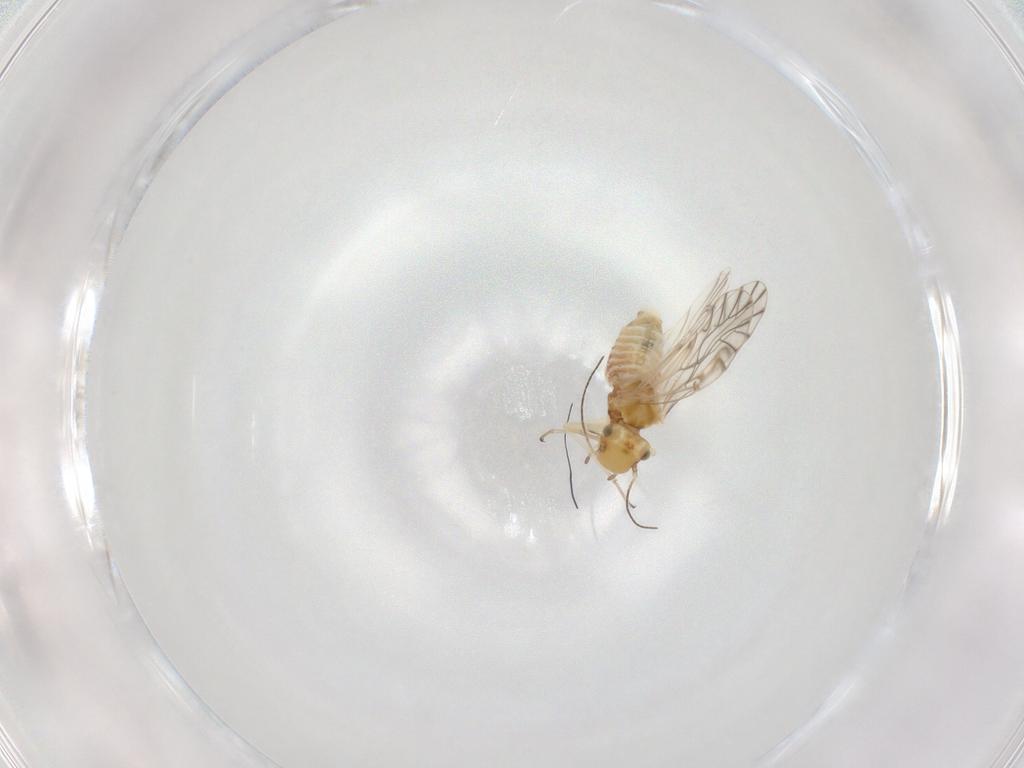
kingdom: Animalia
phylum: Arthropoda
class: Insecta
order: Psocodea
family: Lachesillidae
